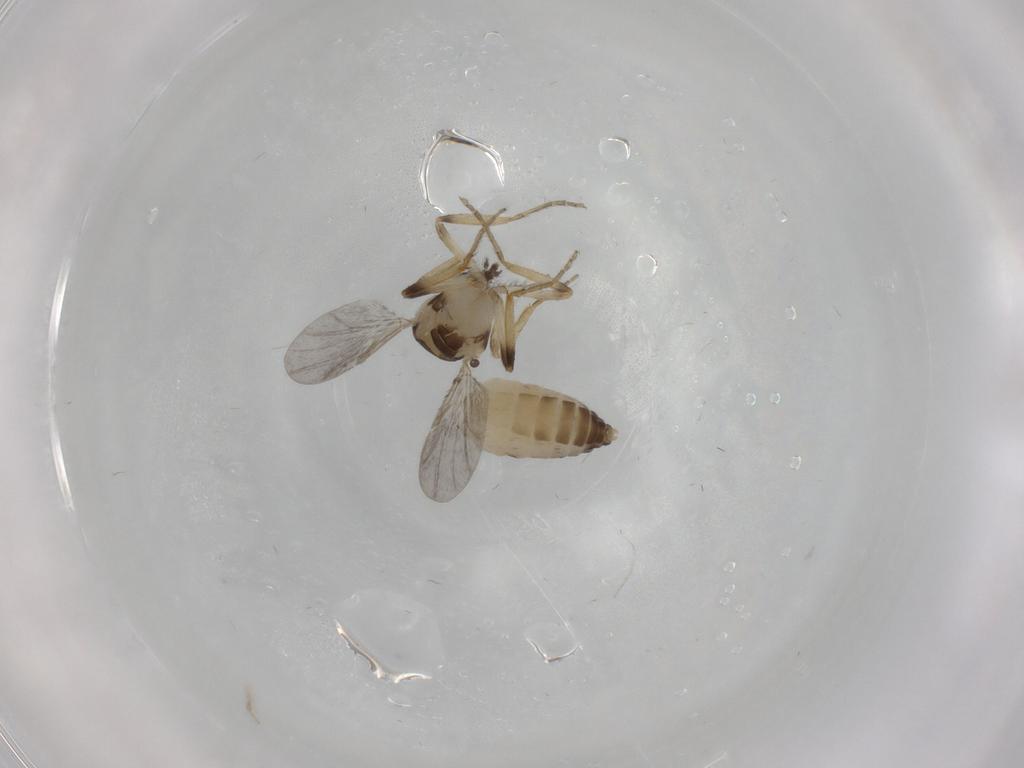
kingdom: Animalia
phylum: Arthropoda
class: Insecta
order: Diptera
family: Ceratopogonidae
